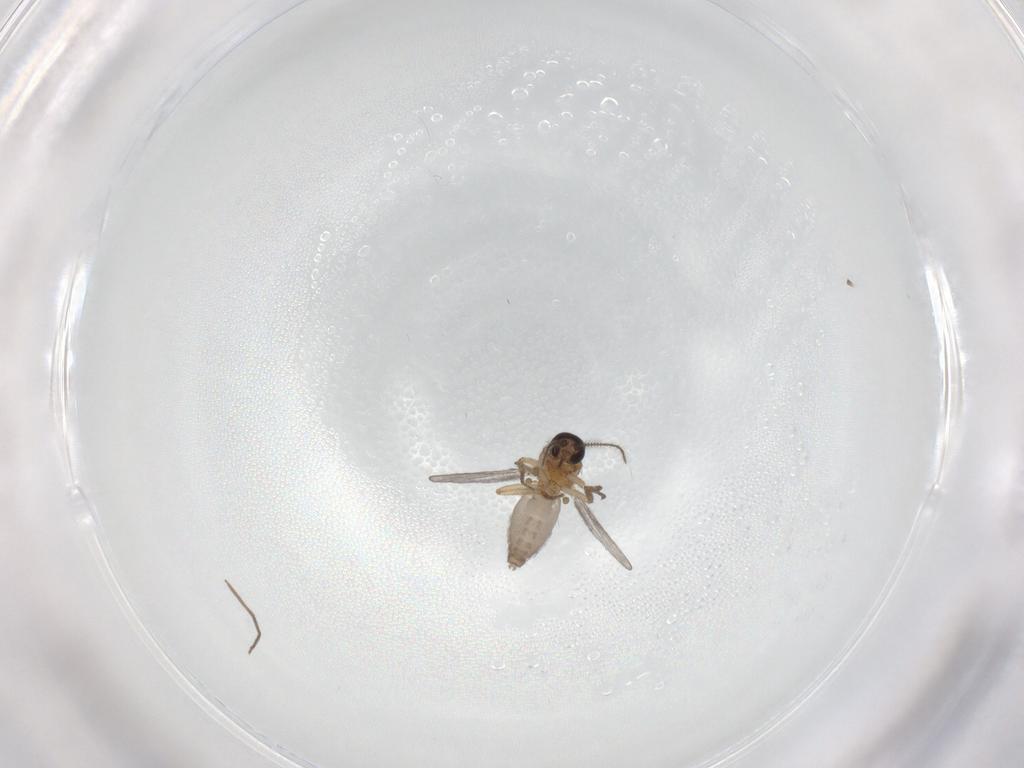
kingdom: Animalia
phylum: Arthropoda
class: Insecta
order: Diptera
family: Ceratopogonidae
